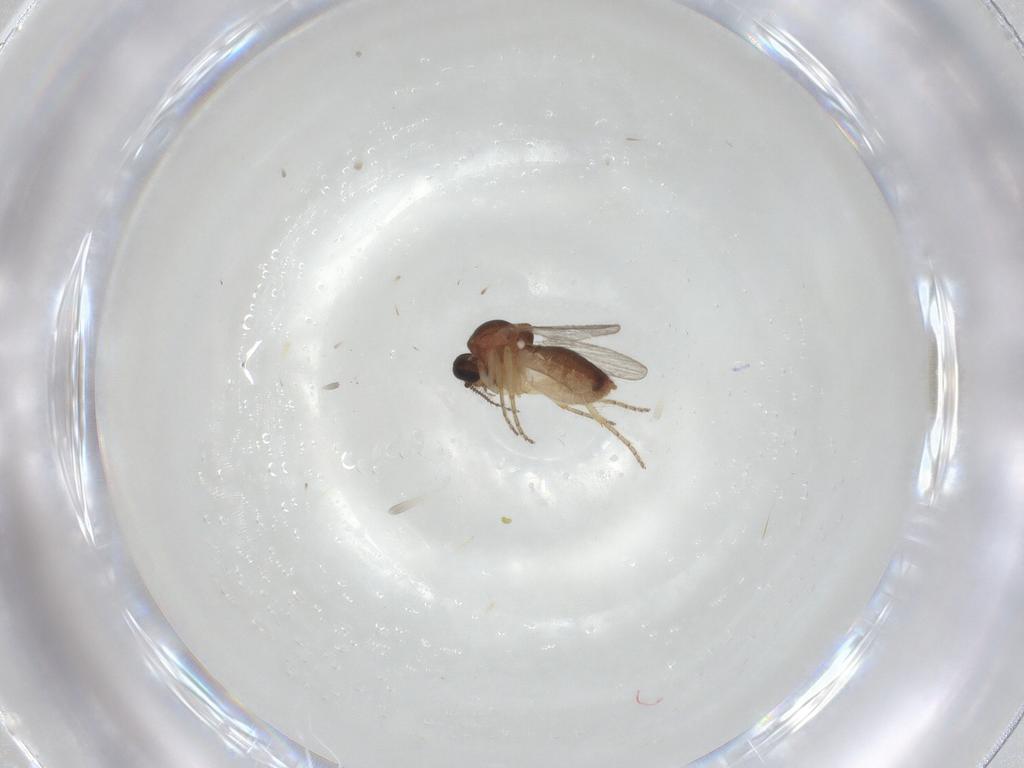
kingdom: Animalia
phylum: Arthropoda
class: Insecta
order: Diptera
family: Ceratopogonidae
